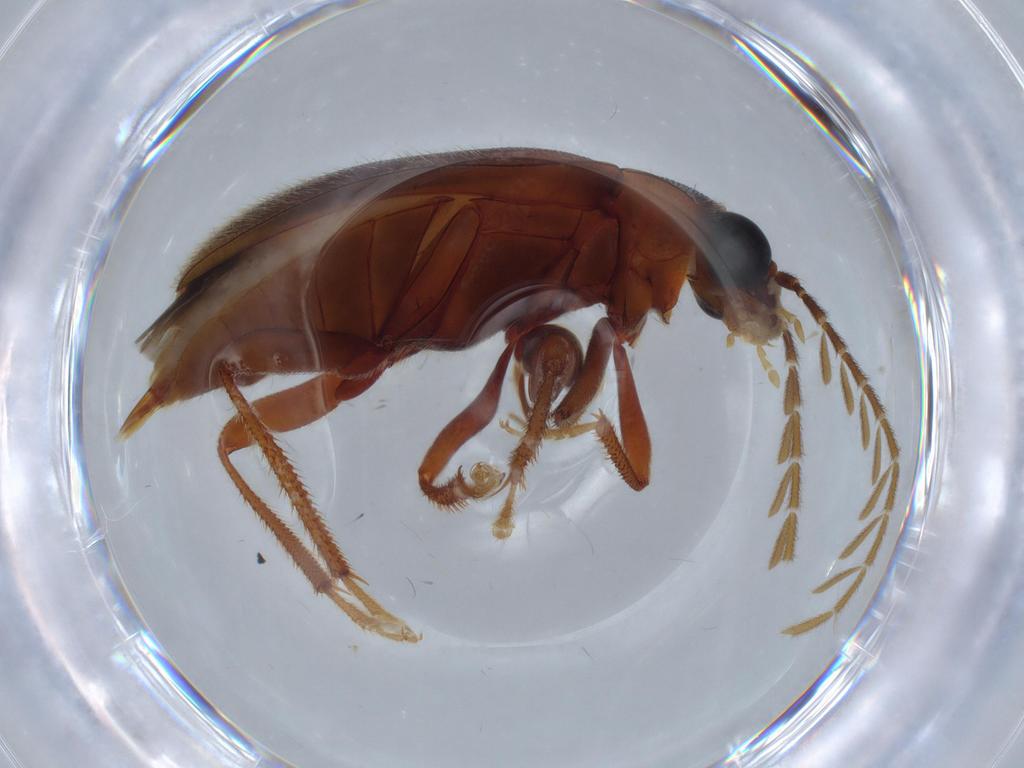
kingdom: Animalia
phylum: Arthropoda
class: Insecta
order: Coleoptera
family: Ptilodactylidae
